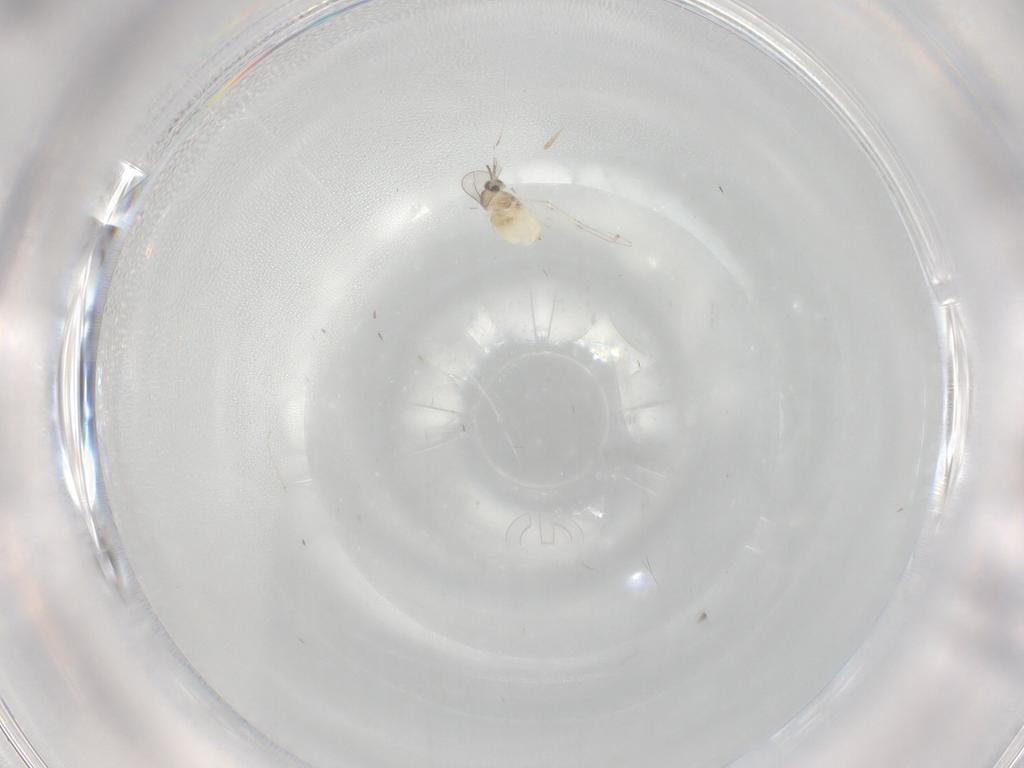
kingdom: Animalia
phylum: Arthropoda
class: Insecta
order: Diptera
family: Cecidomyiidae
